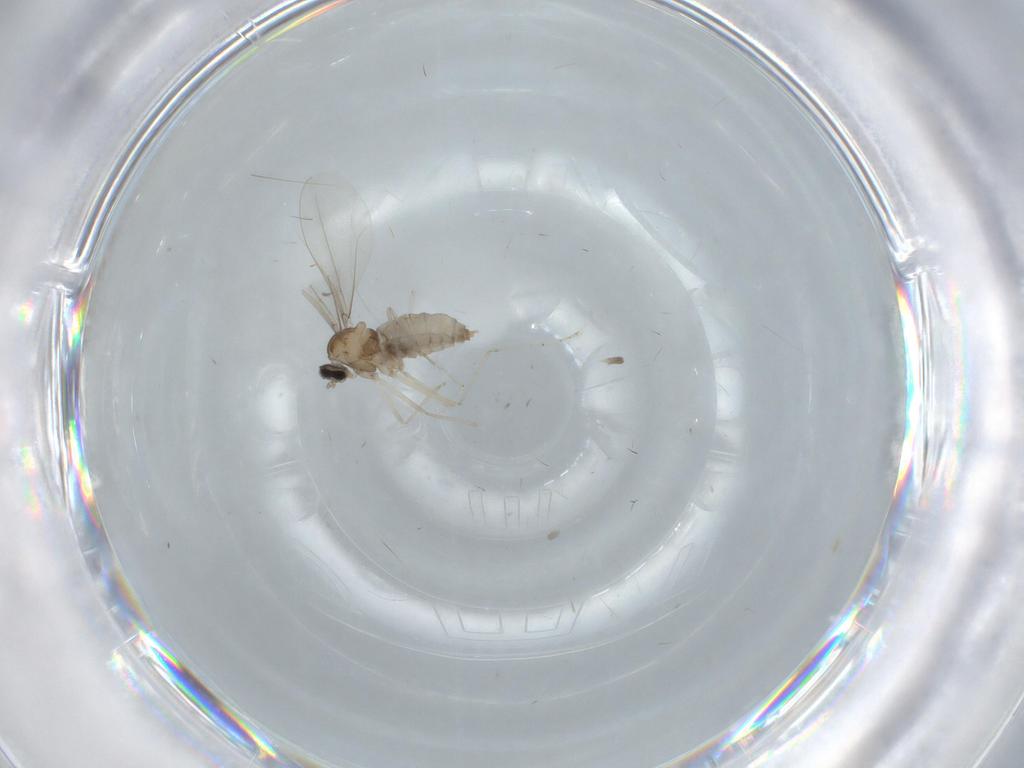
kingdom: Animalia
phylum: Arthropoda
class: Insecta
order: Diptera
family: Cecidomyiidae
